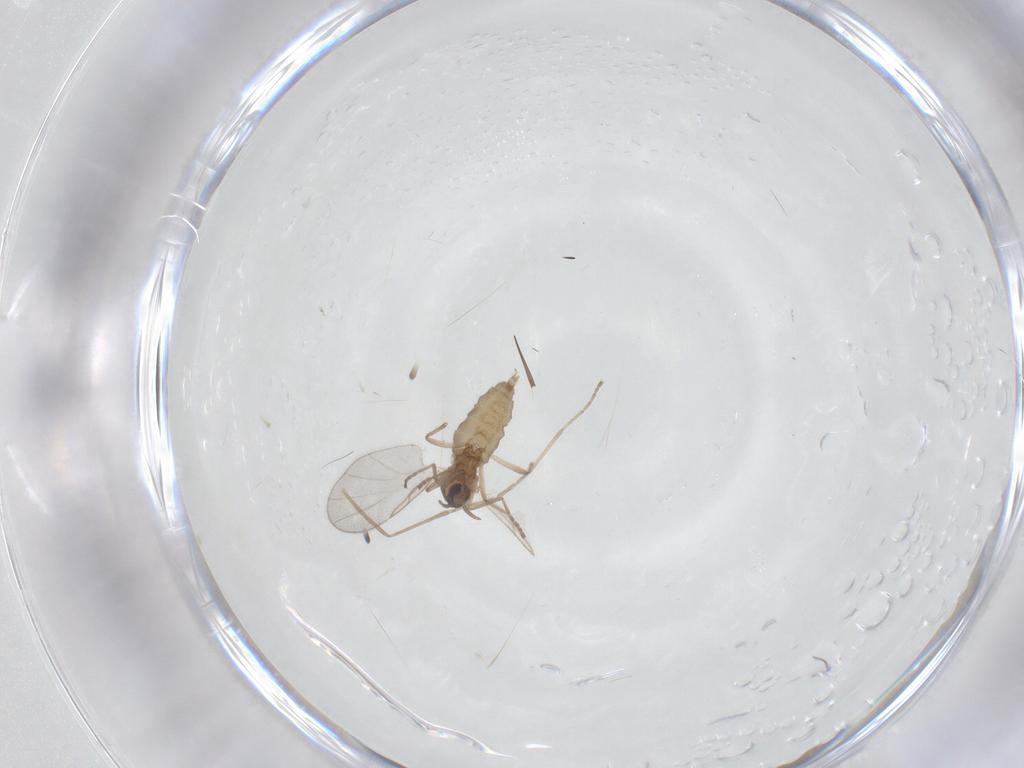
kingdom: Animalia
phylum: Arthropoda
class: Insecta
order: Diptera
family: Cecidomyiidae
